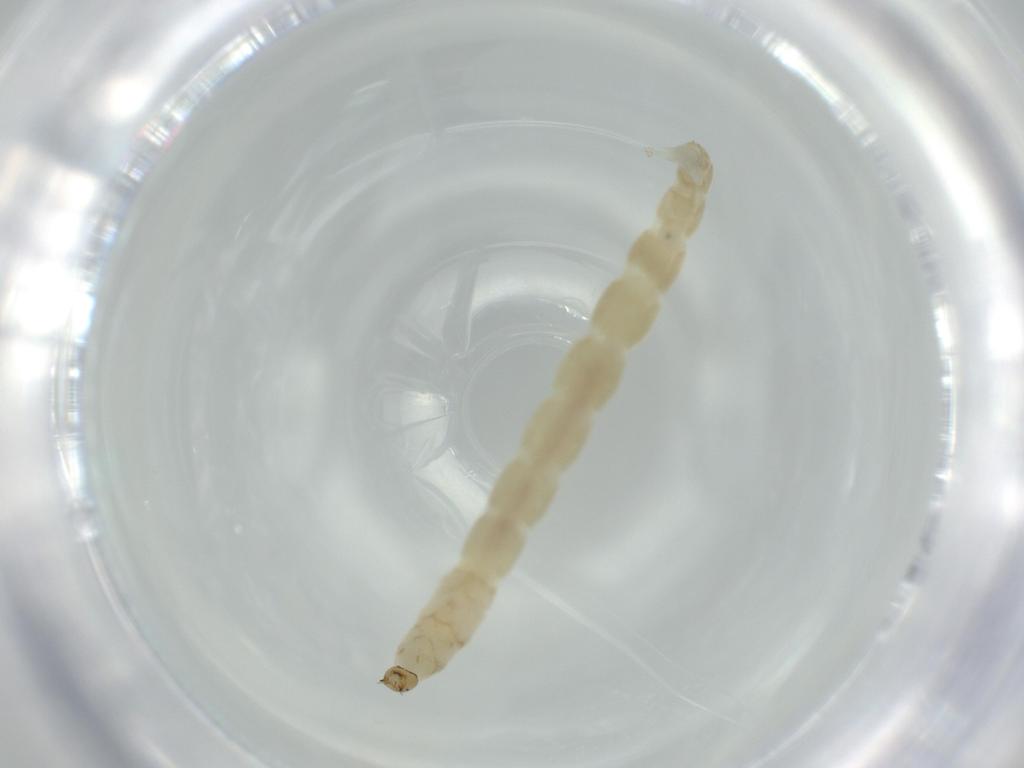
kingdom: Animalia
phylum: Arthropoda
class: Insecta
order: Diptera
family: Chironomidae
